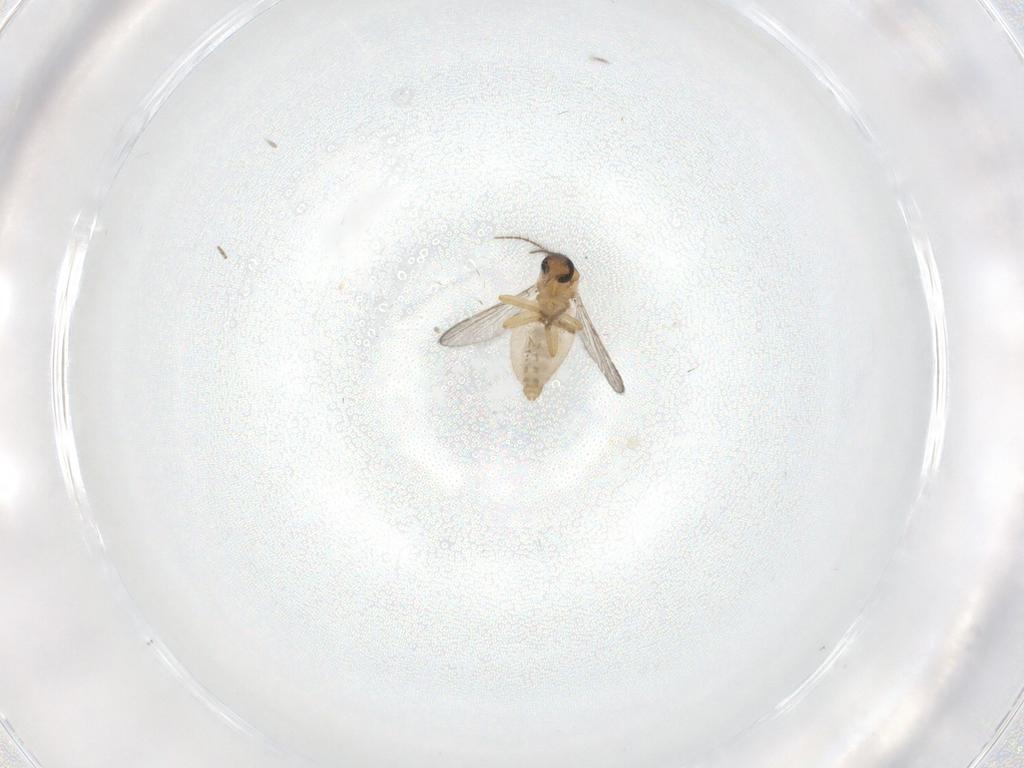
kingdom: Animalia
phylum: Arthropoda
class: Insecta
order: Diptera
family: Ceratopogonidae
